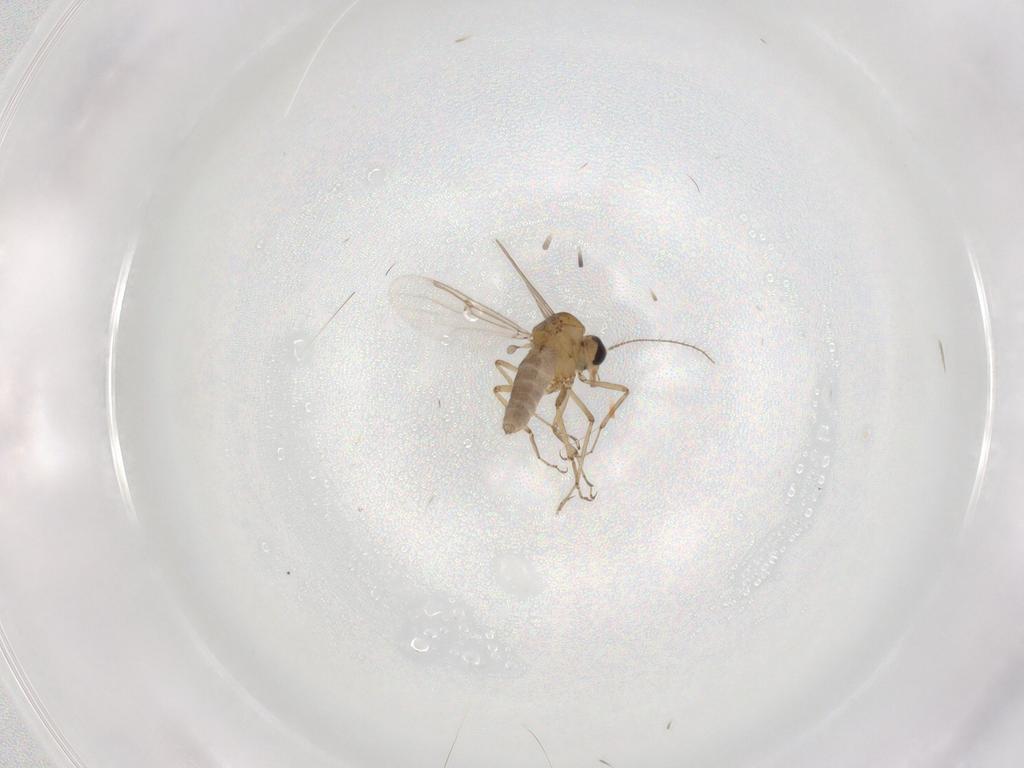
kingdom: Animalia
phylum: Arthropoda
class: Insecta
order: Diptera
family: Ceratopogonidae
